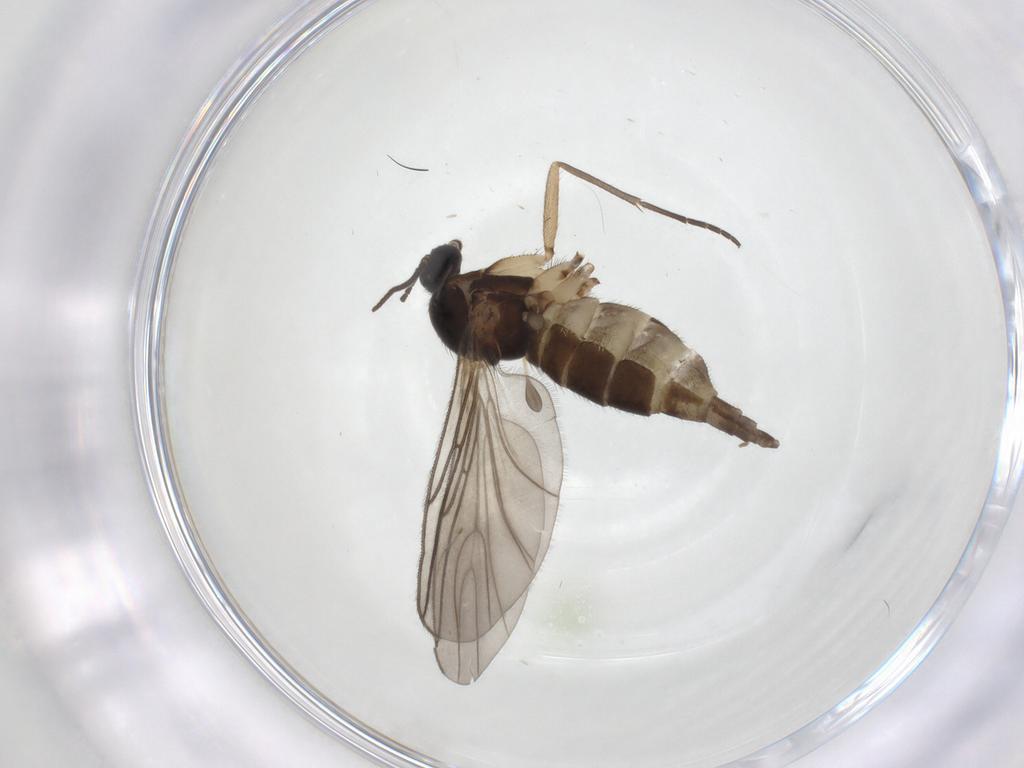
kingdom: Animalia
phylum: Arthropoda
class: Insecta
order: Diptera
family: Sciaridae
